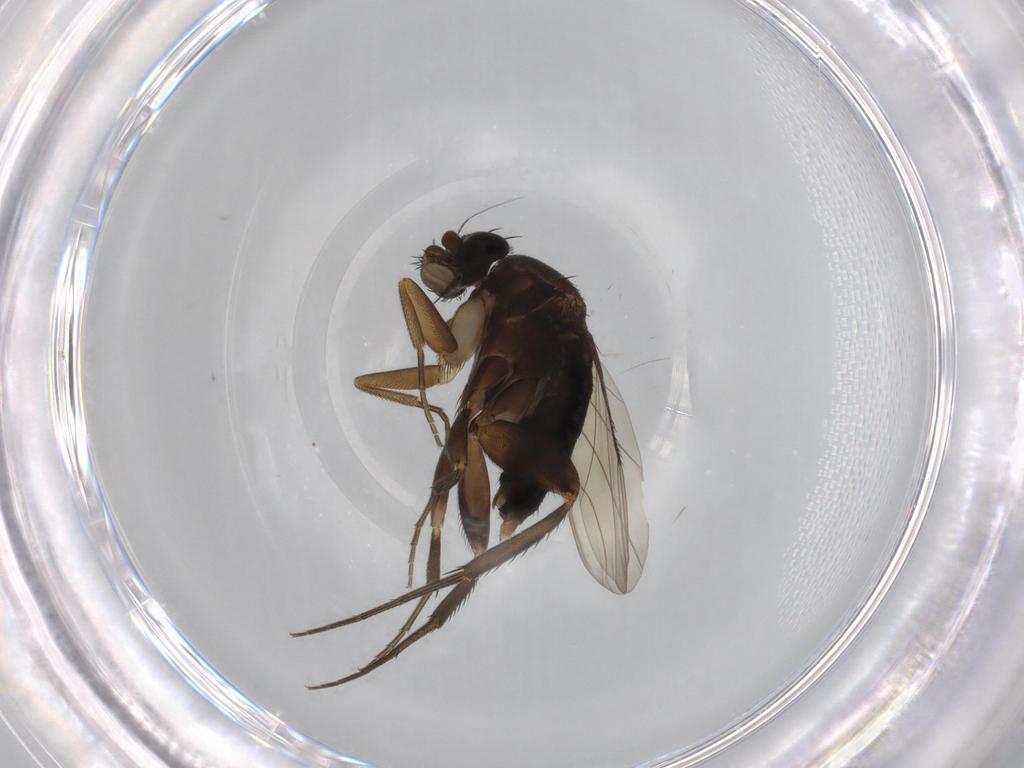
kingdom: Animalia
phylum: Arthropoda
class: Insecta
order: Diptera
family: Phoridae
